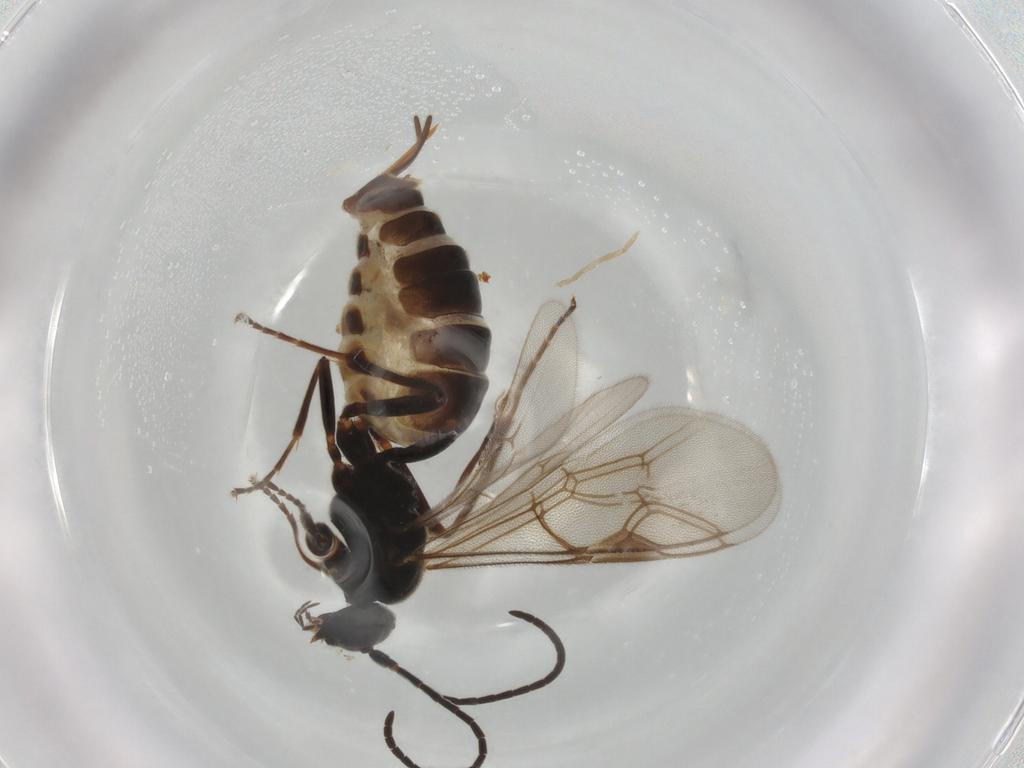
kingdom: Animalia
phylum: Arthropoda
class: Insecta
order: Hymenoptera
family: Ichneumonidae
